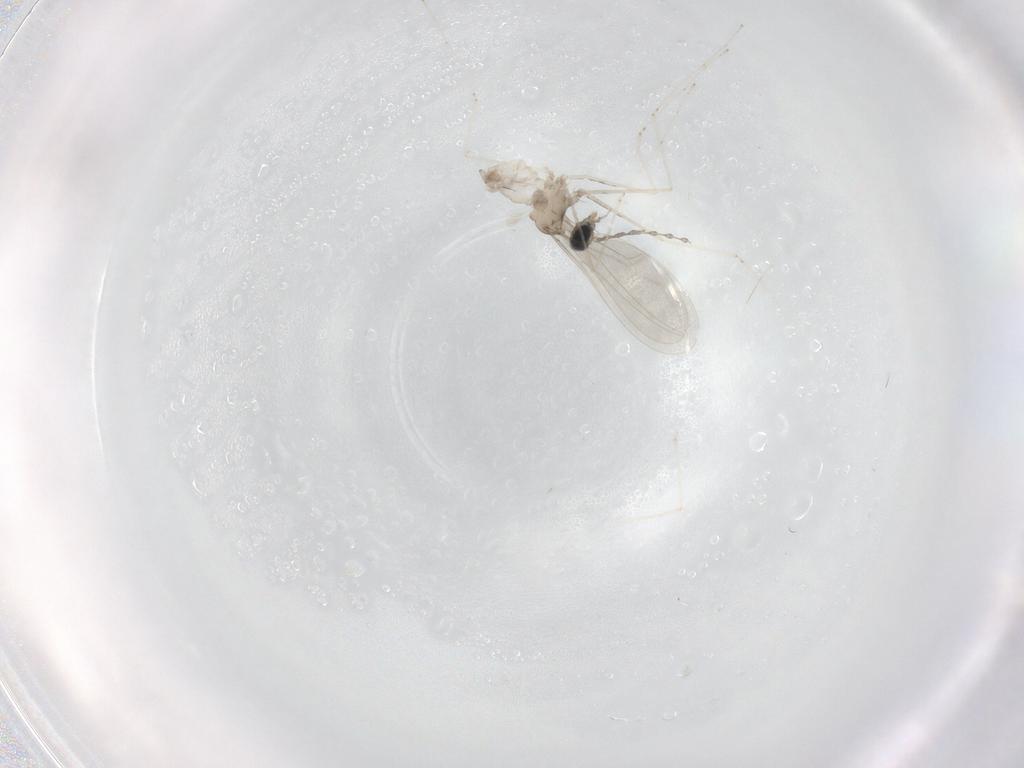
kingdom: Animalia
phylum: Arthropoda
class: Insecta
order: Diptera
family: Cecidomyiidae
